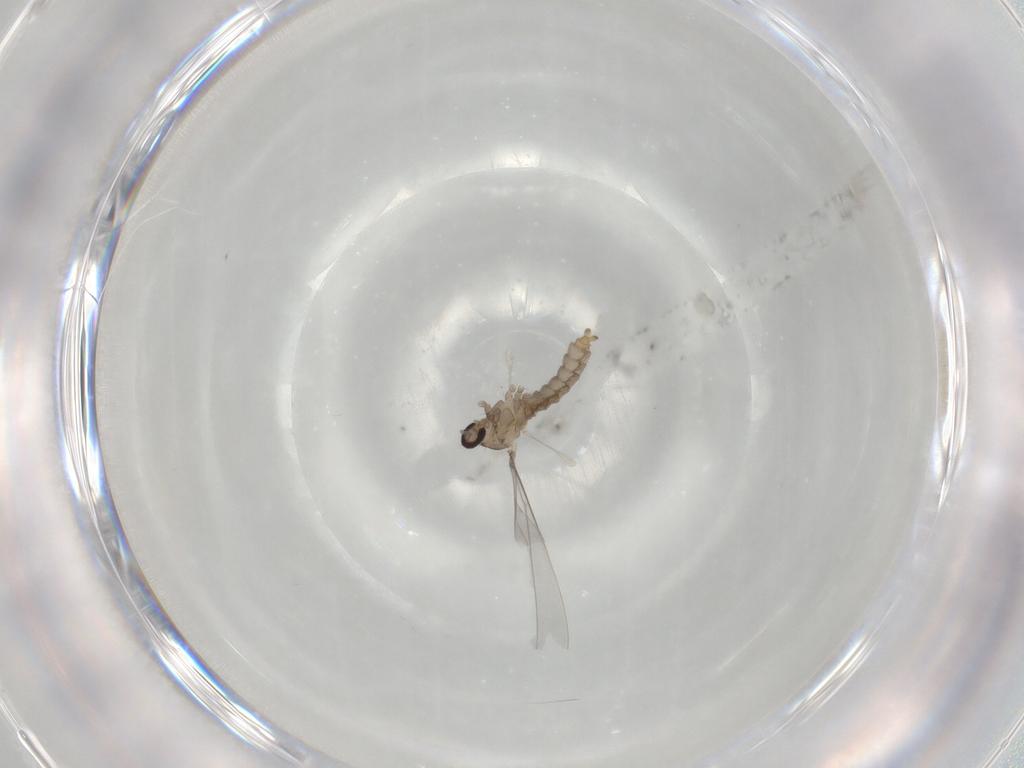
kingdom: Animalia
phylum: Arthropoda
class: Insecta
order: Diptera
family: Cecidomyiidae
